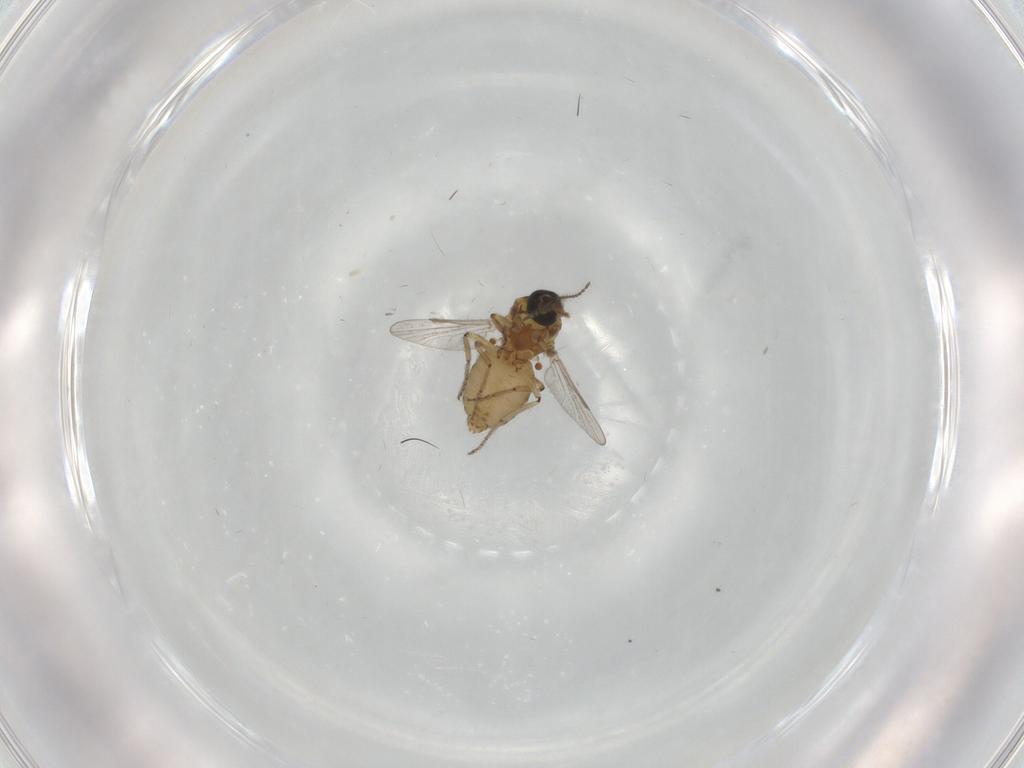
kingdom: Animalia
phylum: Arthropoda
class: Insecta
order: Diptera
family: Ceratopogonidae
